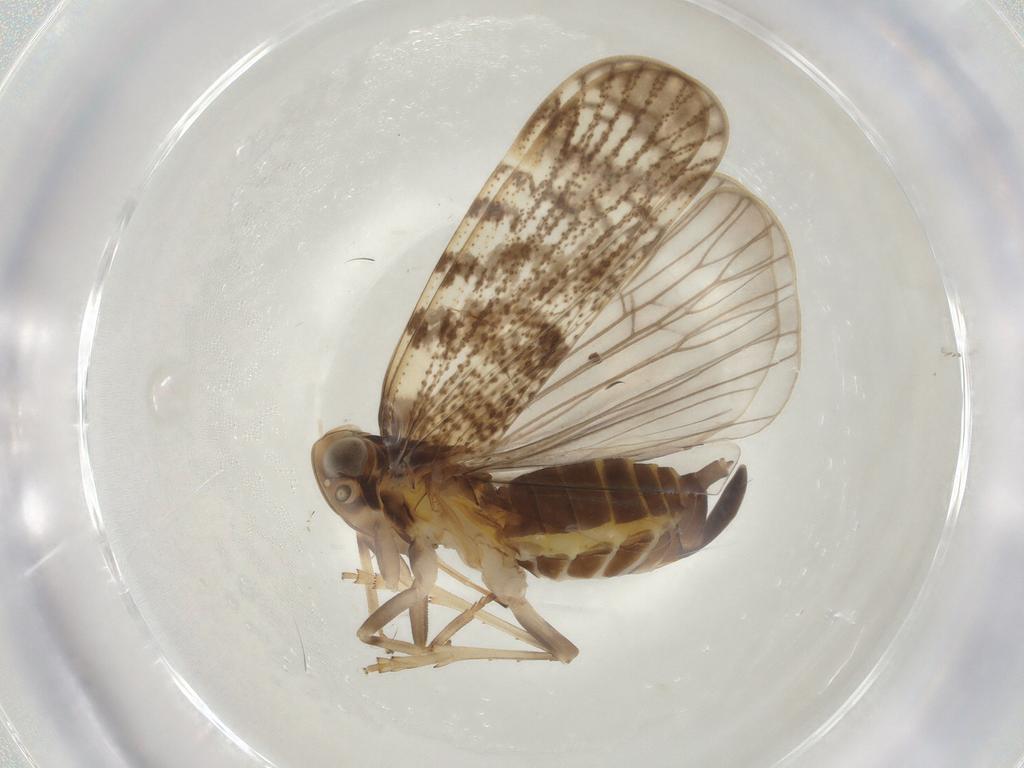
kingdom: Animalia
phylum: Arthropoda
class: Insecta
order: Diptera
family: Sarcophagidae
